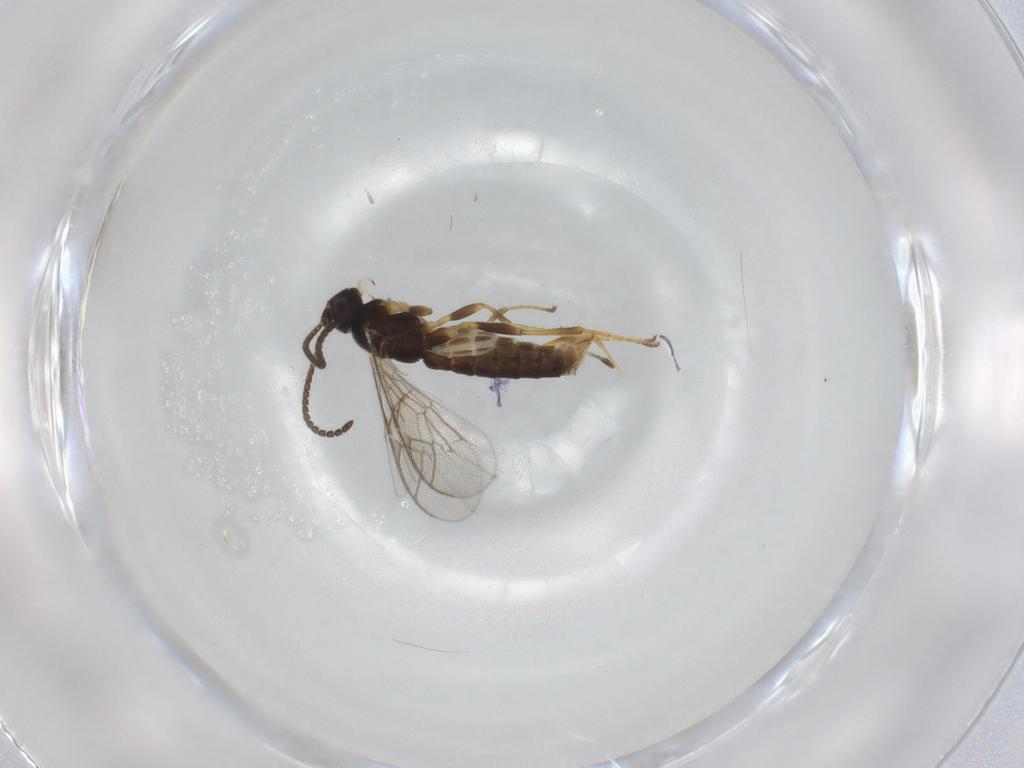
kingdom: Animalia
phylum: Arthropoda
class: Insecta
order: Hymenoptera
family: Ichneumonidae
